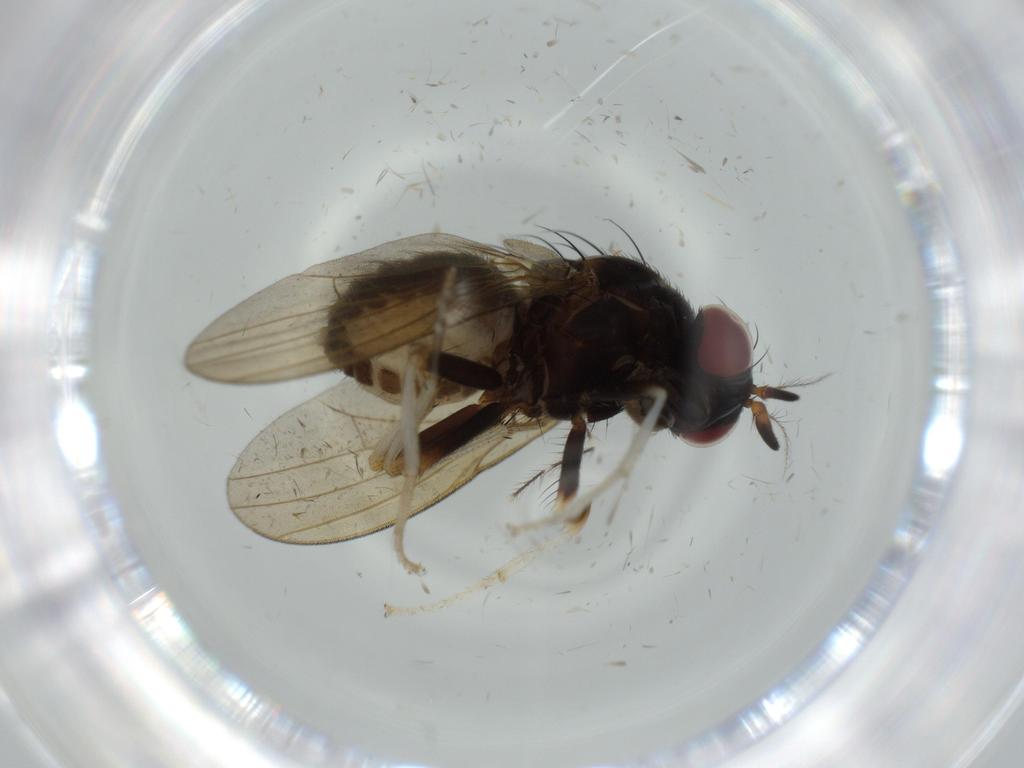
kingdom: Animalia
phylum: Arthropoda
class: Insecta
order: Diptera
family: Cecidomyiidae
